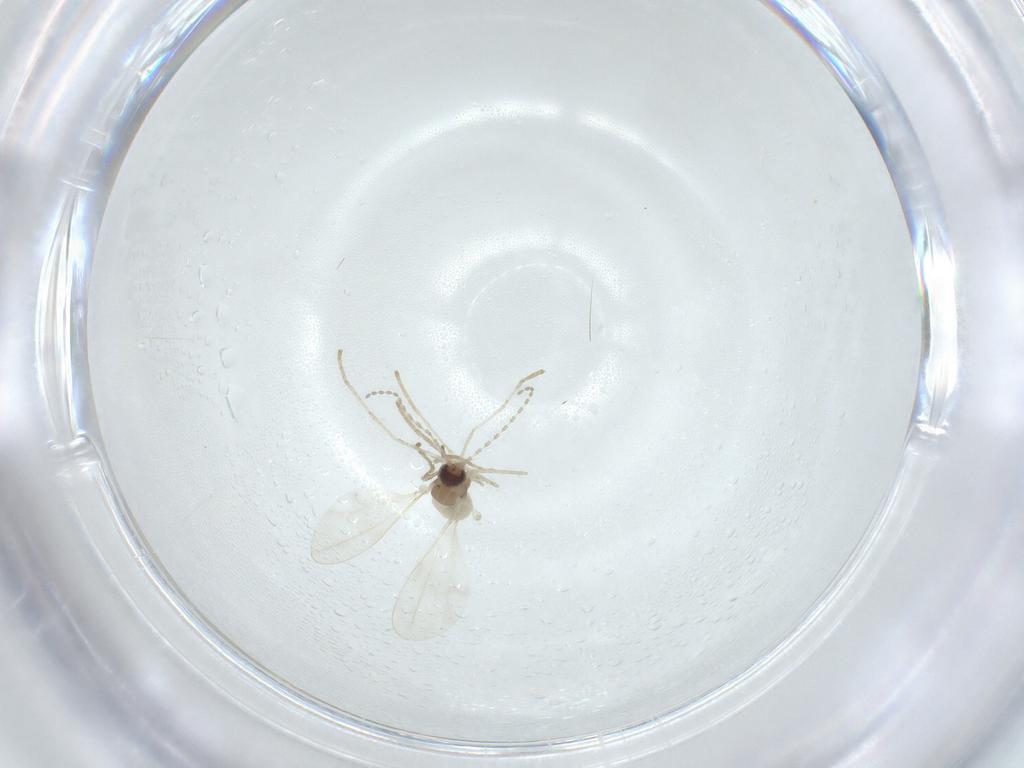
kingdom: Animalia
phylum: Arthropoda
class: Insecta
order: Diptera
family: Cecidomyiidae
